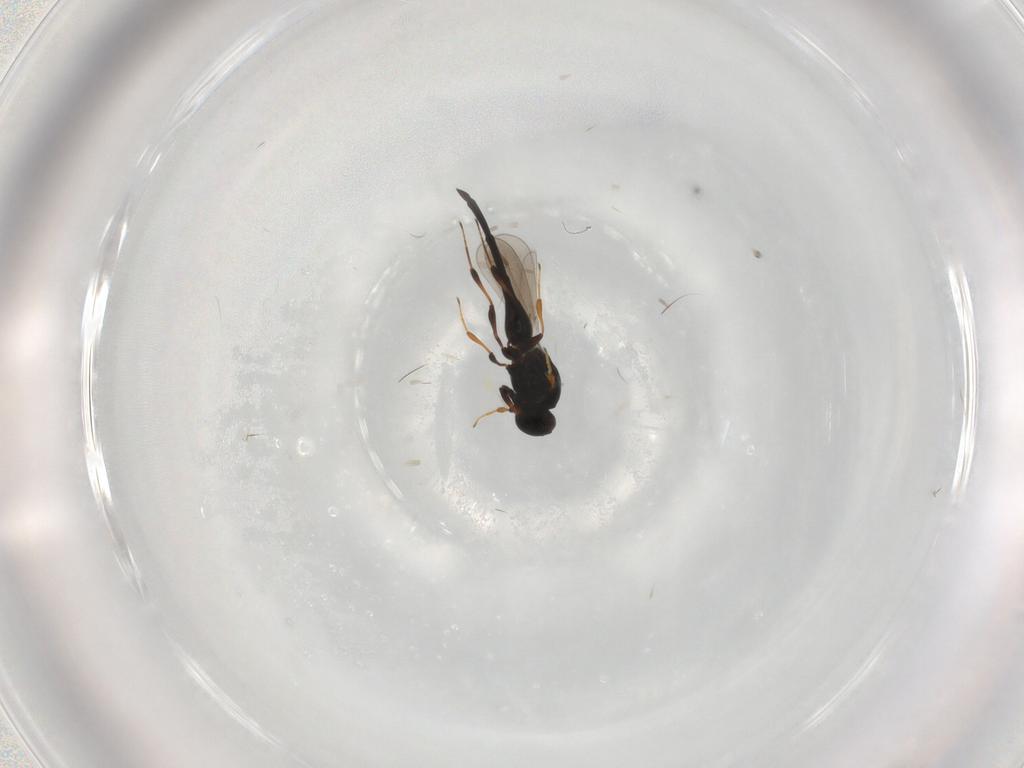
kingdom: Animalia
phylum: Arthropoda
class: Insecta
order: Hymenoptera
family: Platygastridae
